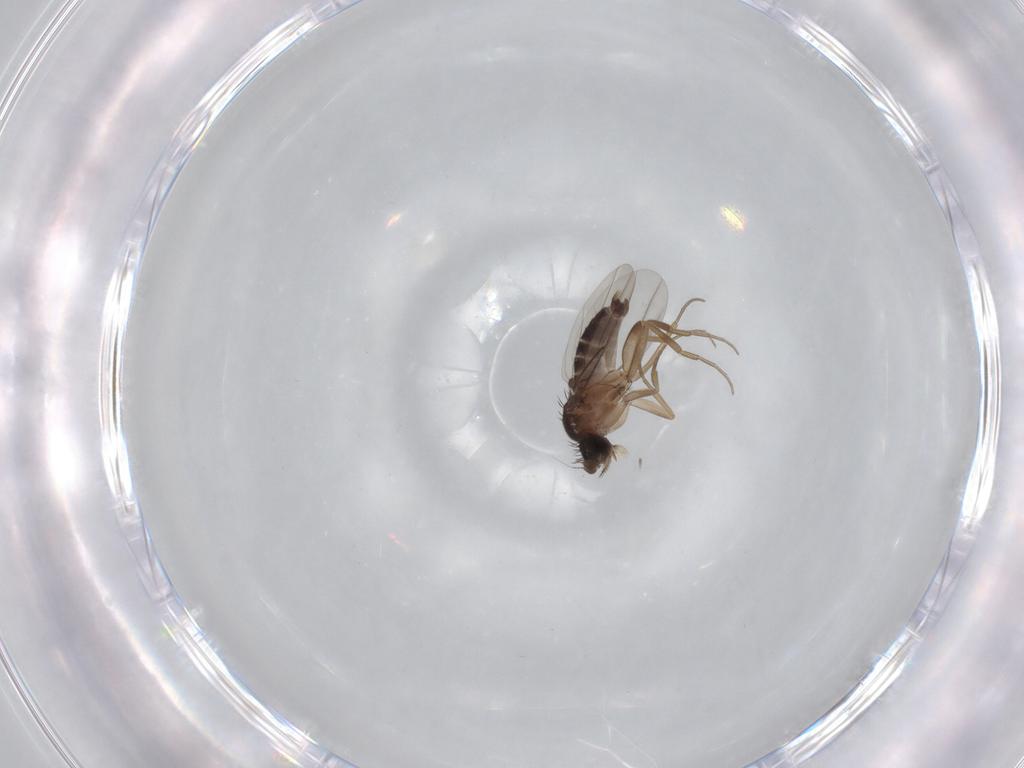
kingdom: Animalia
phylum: Arthropoda
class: Insecta
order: Diptera
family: Phoridae
